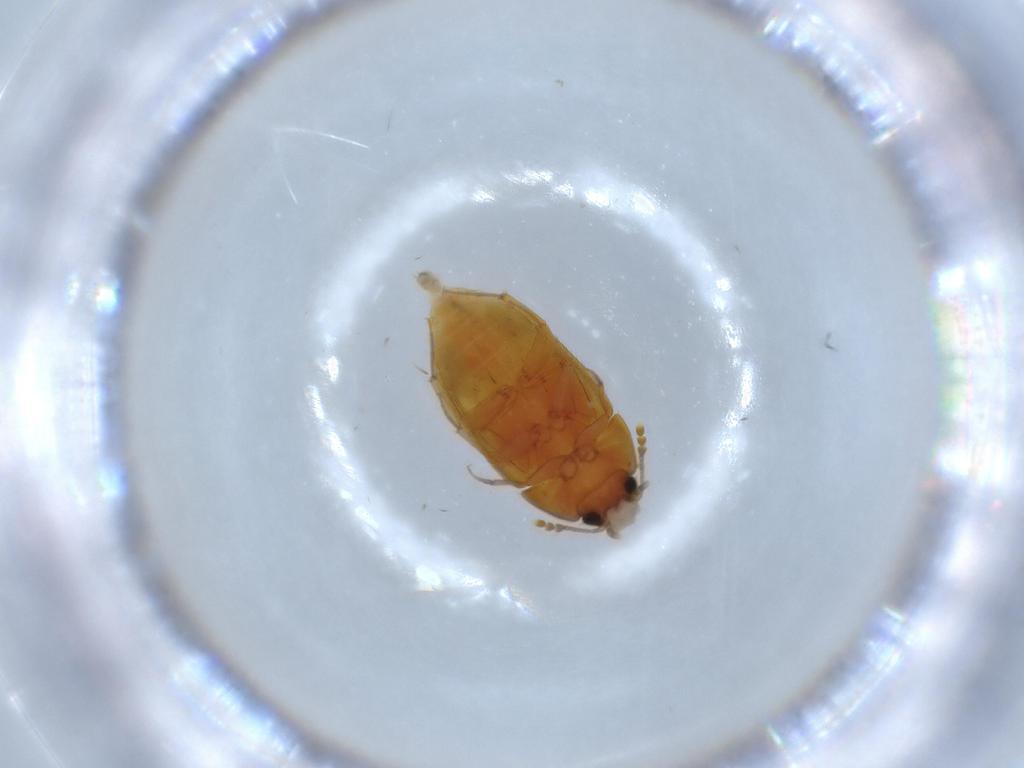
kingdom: Animalia
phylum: Arthropoda
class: Insecta
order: Coleoptera
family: Mycetophagidae
